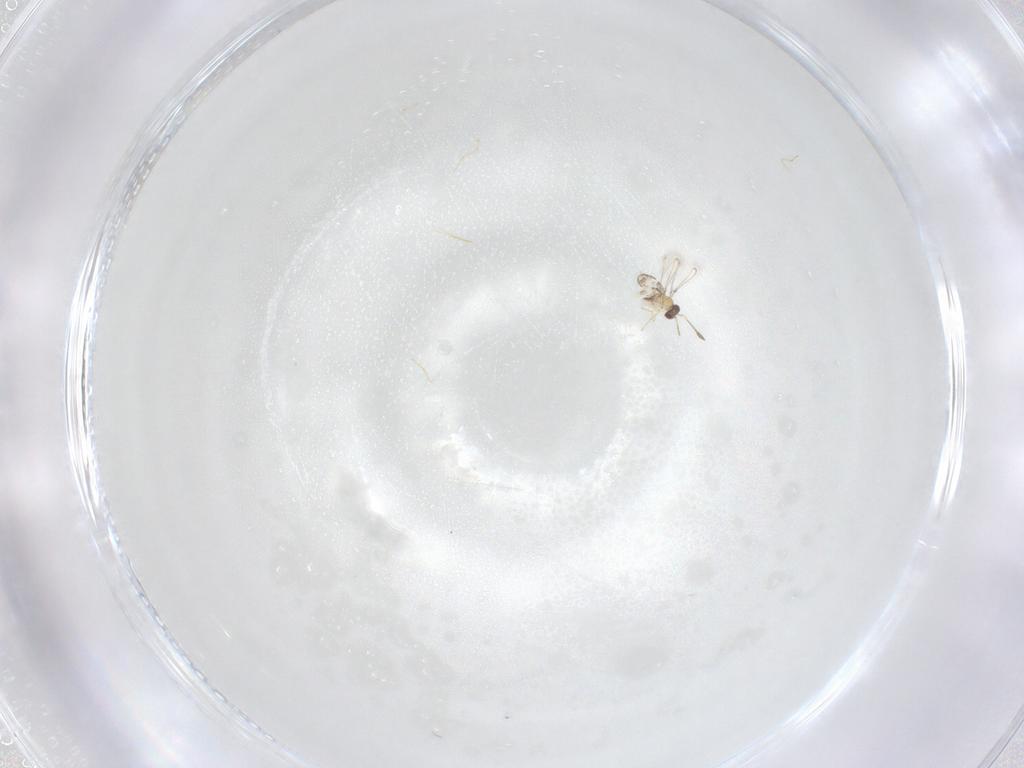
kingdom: Animalia
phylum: Arthropoda
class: Insecta
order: Hymenoptera
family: Mymaridae
